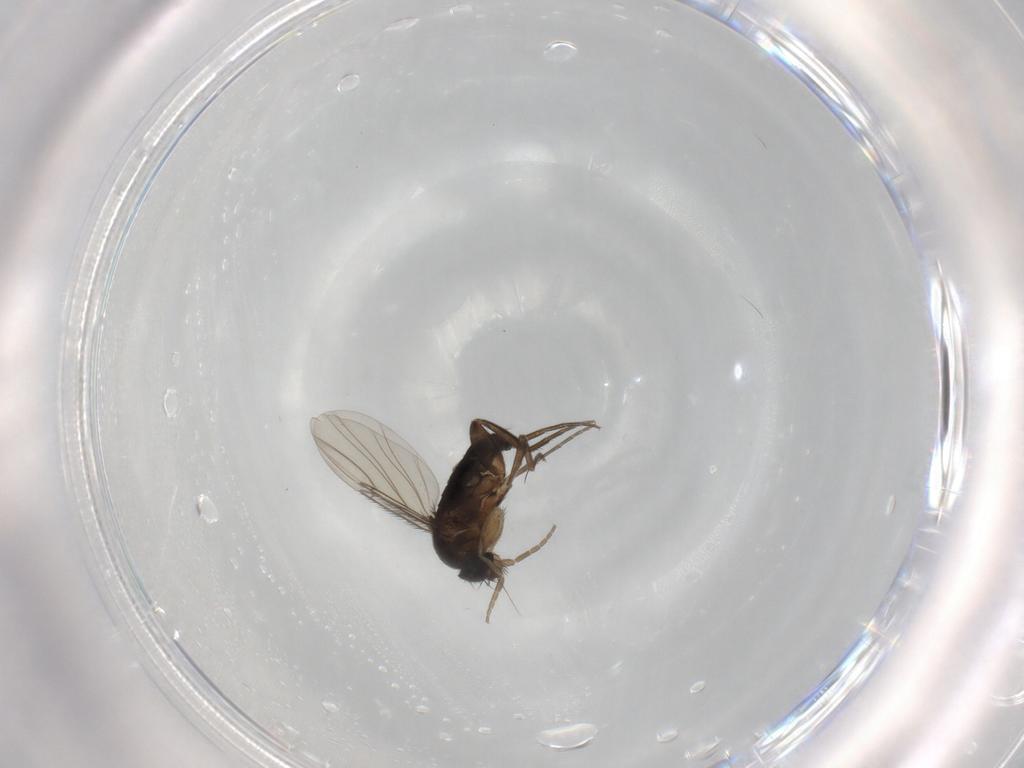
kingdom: Animalia
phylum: Arthropoda
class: Insecta
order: Diptera
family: Phoridae
